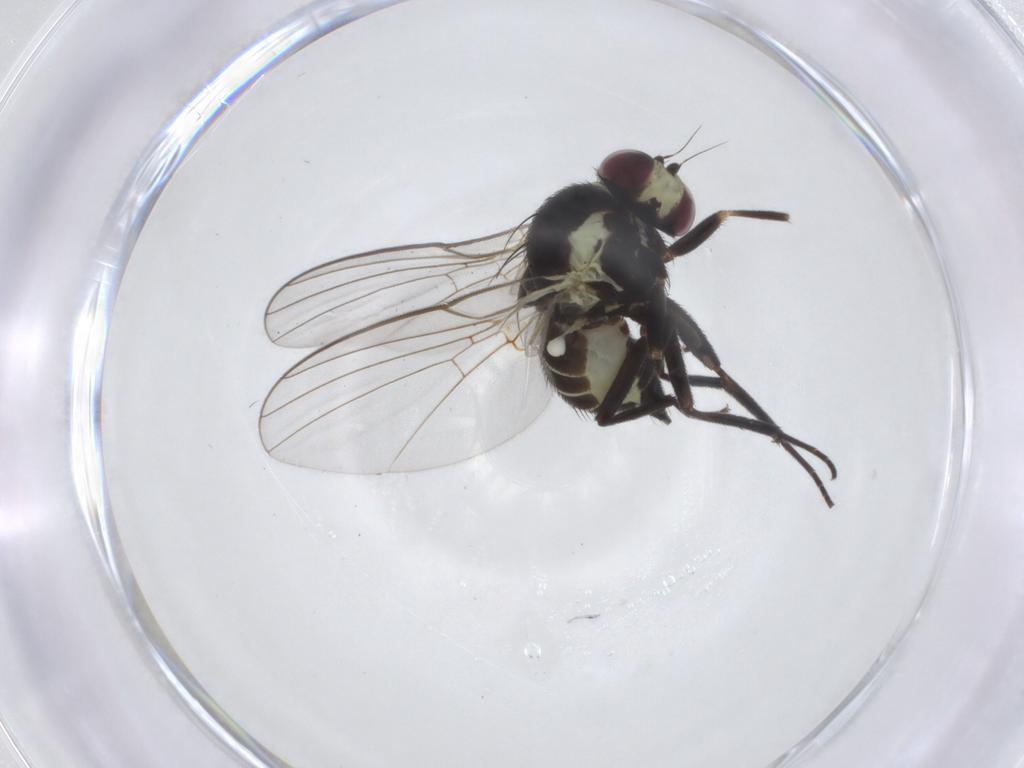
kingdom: Animalia
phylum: Arthropoda
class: Insecta
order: Diptera
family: Agromyzidae
